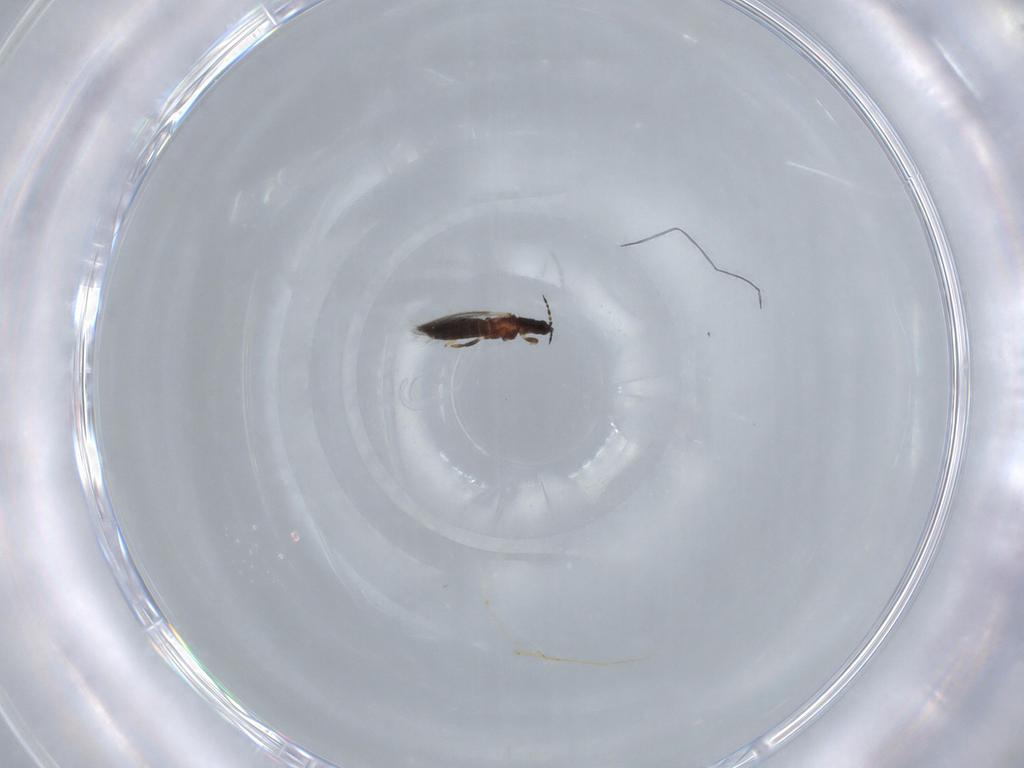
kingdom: Animalia
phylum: Arthropoda
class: Insecta
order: Thysanoptera
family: Thripidae
